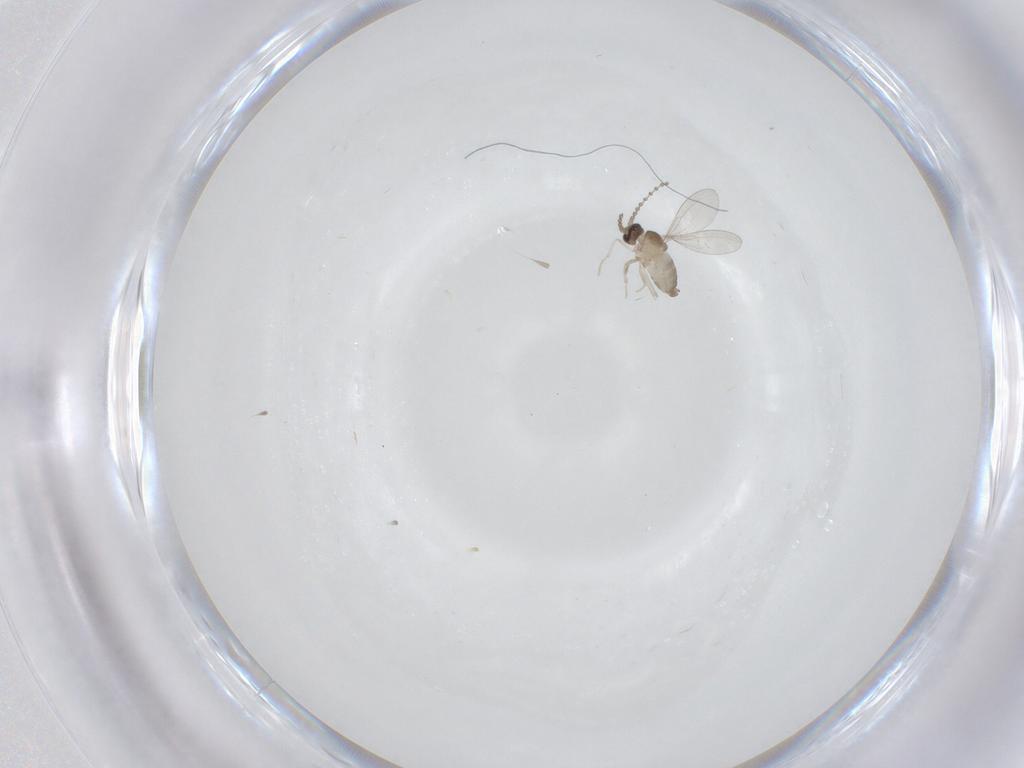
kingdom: Animalia
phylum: Arthropoda
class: Insecta
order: Diptera
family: Cecidomyiidae
